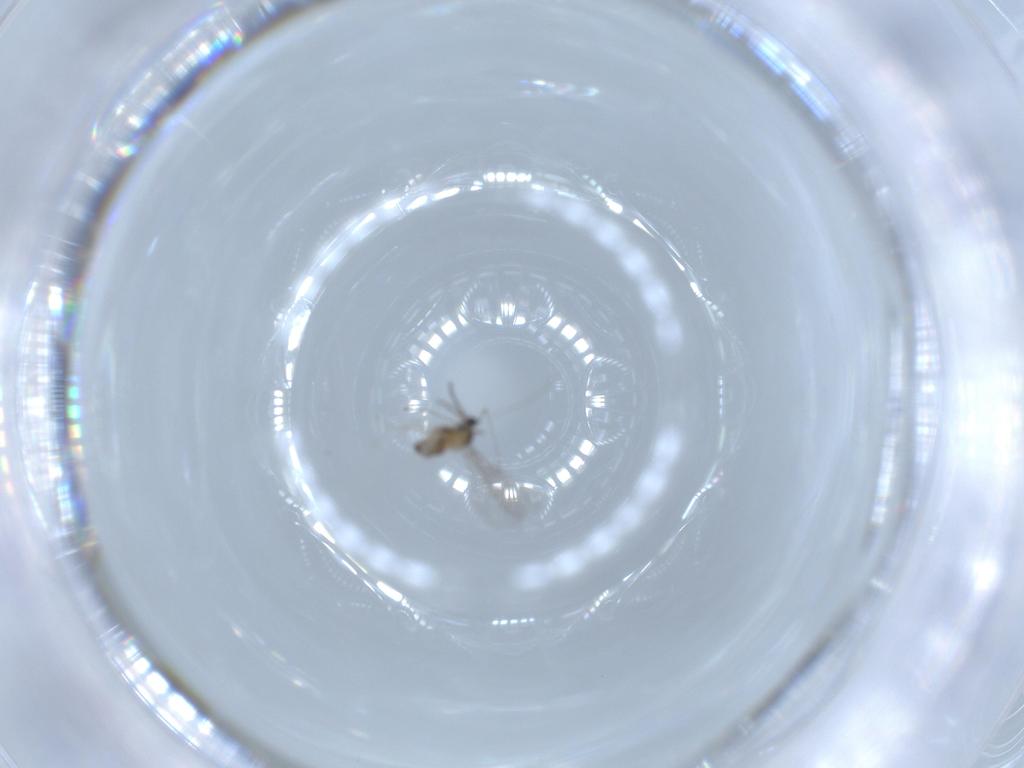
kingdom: Animalia
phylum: Arthropoda
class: Insecta
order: Diptera
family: Cecidomyiidae
